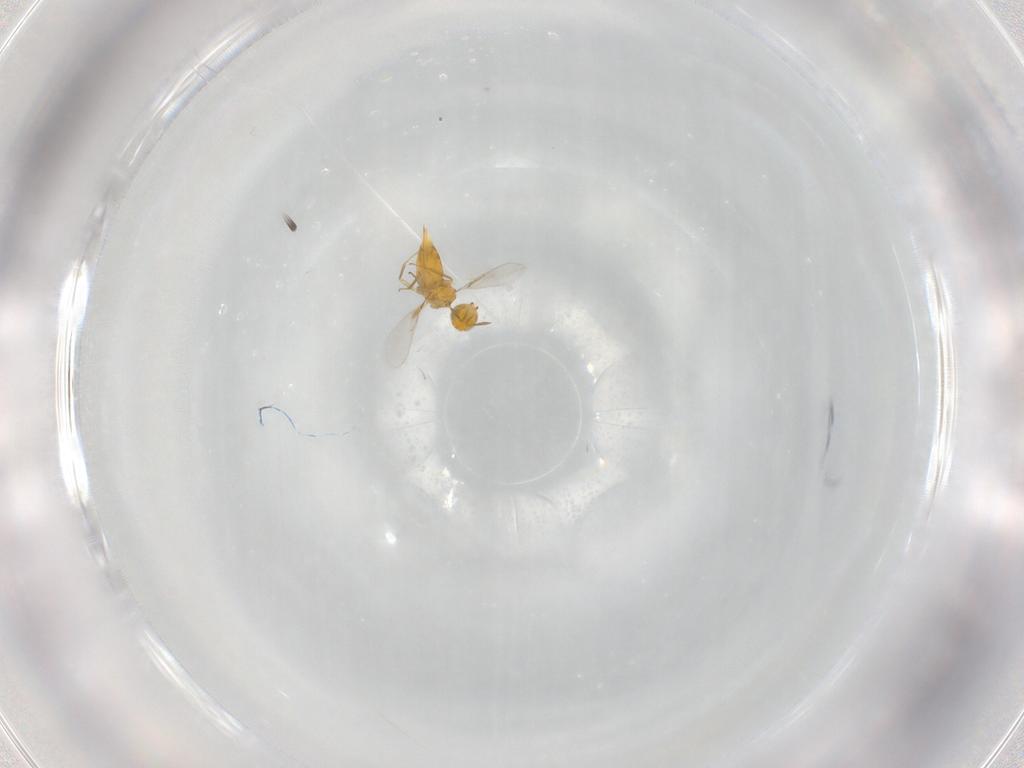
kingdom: Animalia
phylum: Arthropoda
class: Insecta
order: Hymenoptera
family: Aphelinidae
